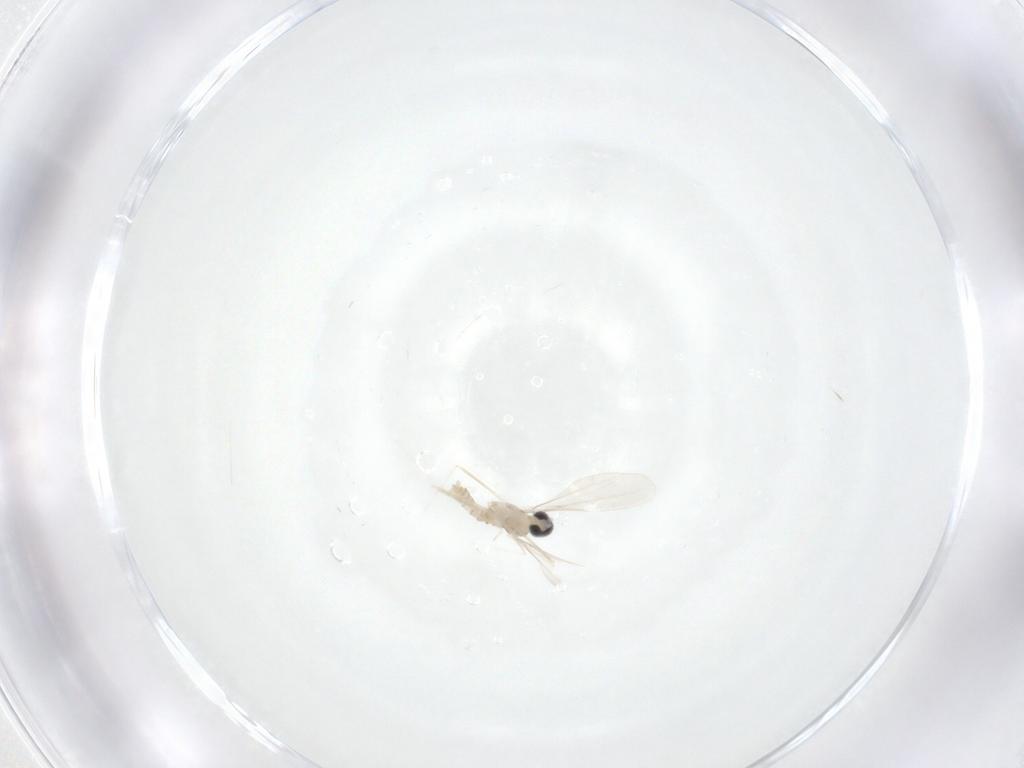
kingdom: Animalia
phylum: Arthropoda
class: Insecta
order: Diptera
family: Cecidomyiidae
